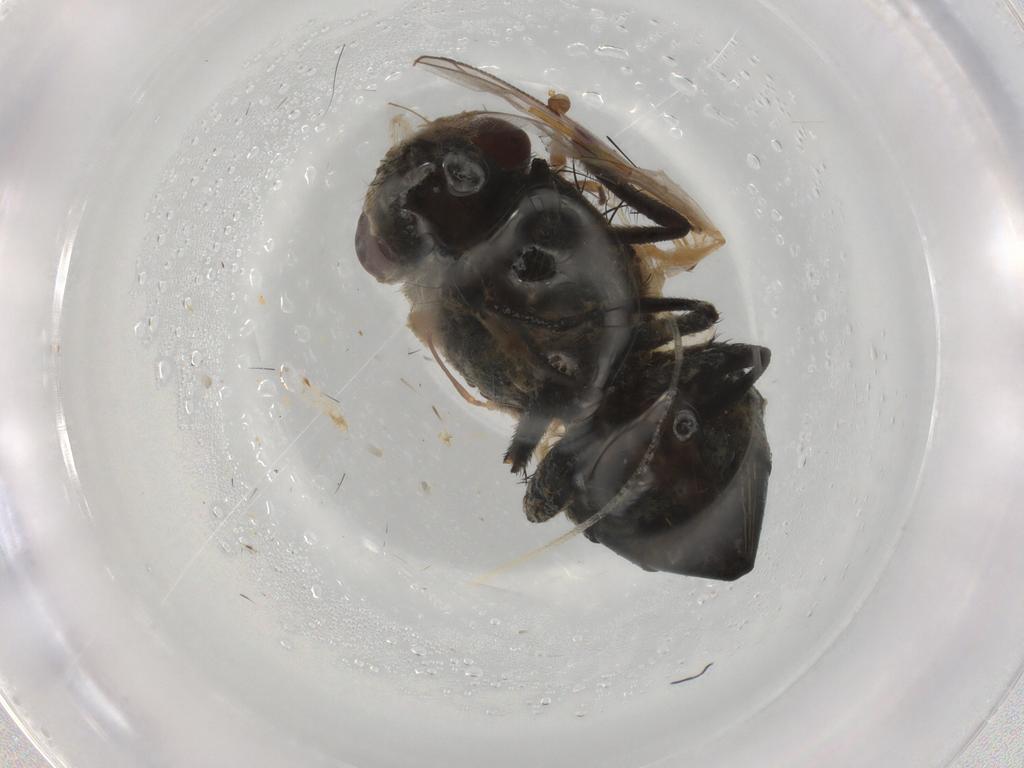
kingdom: Animalia
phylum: Arthropoda
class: Insecta
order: Diptera
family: Muscidae
